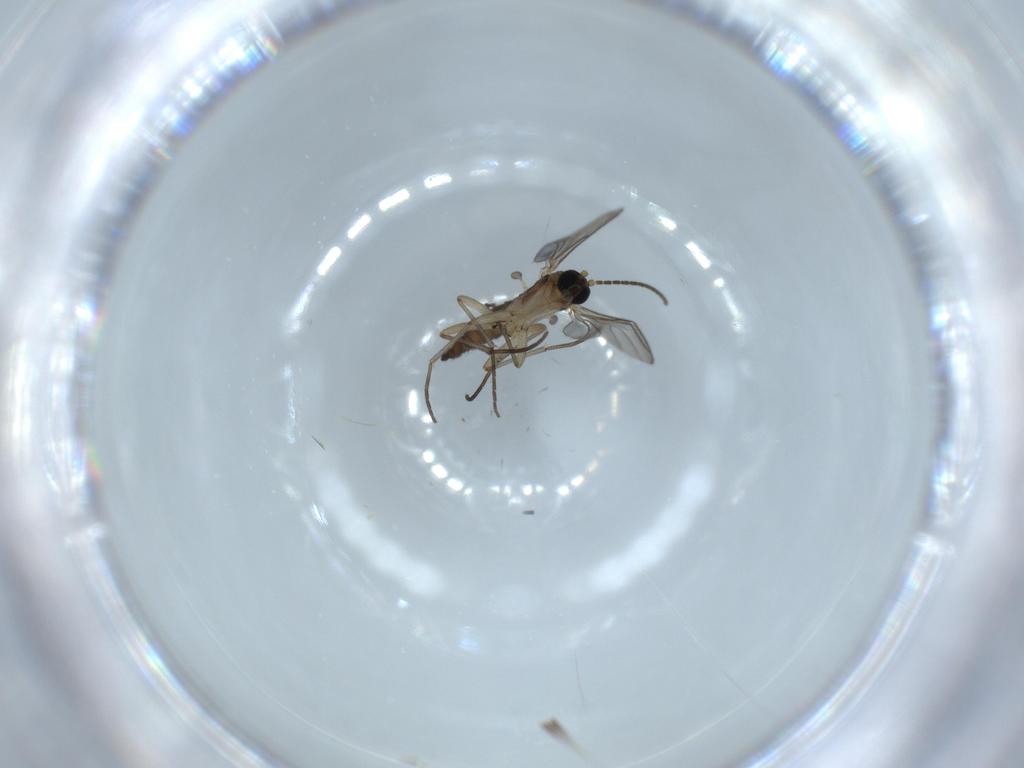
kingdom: Animalia
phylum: Arthropoda
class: Insecta
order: Diptera
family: Sciaridae
